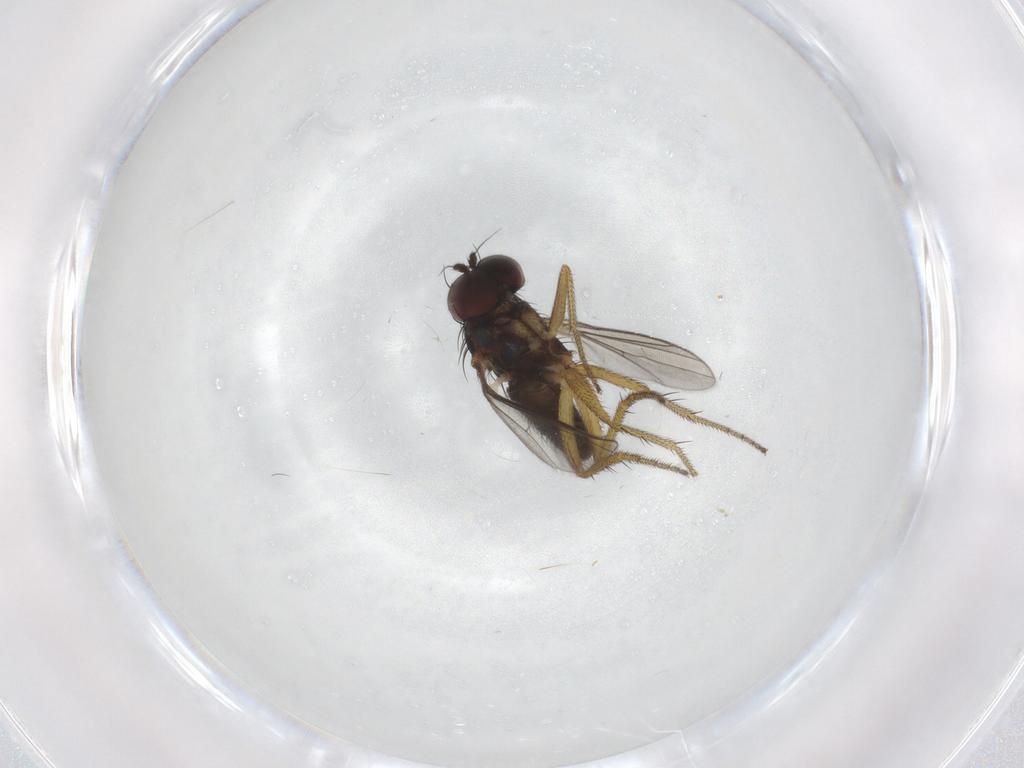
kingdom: Animalia
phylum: Arthropoda
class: Insecta
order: Diptera
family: Dolichopodidae
